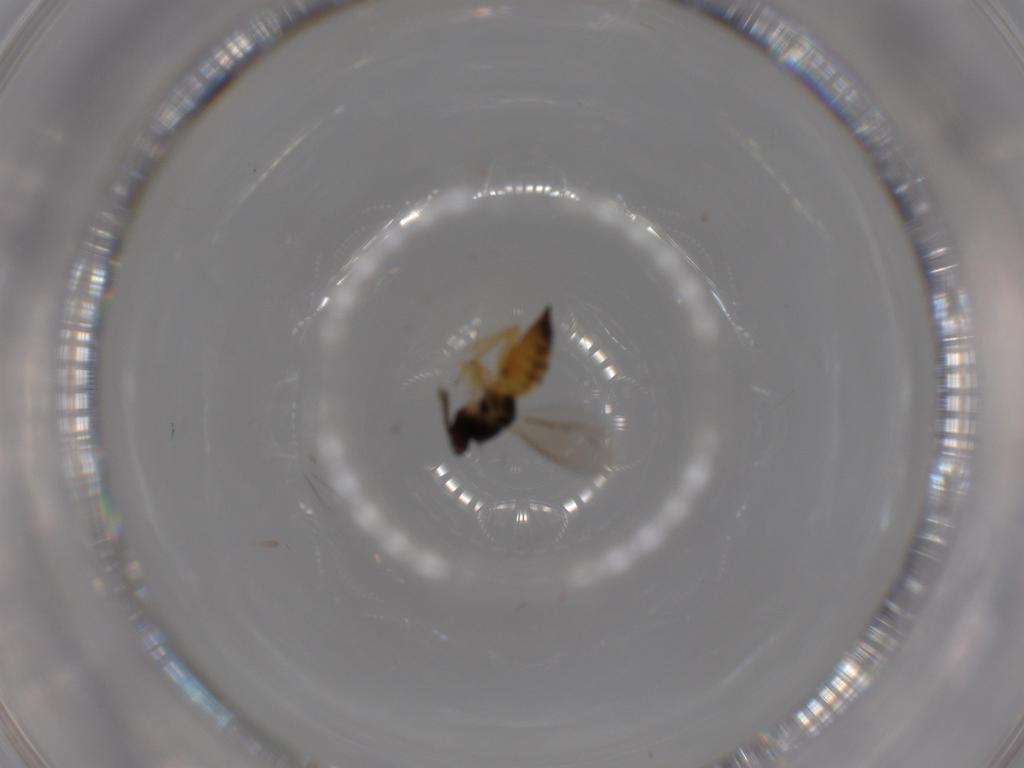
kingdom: Animalia
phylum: Arthropoda
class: Insecta
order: Hymenoptera
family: Eulophidae
